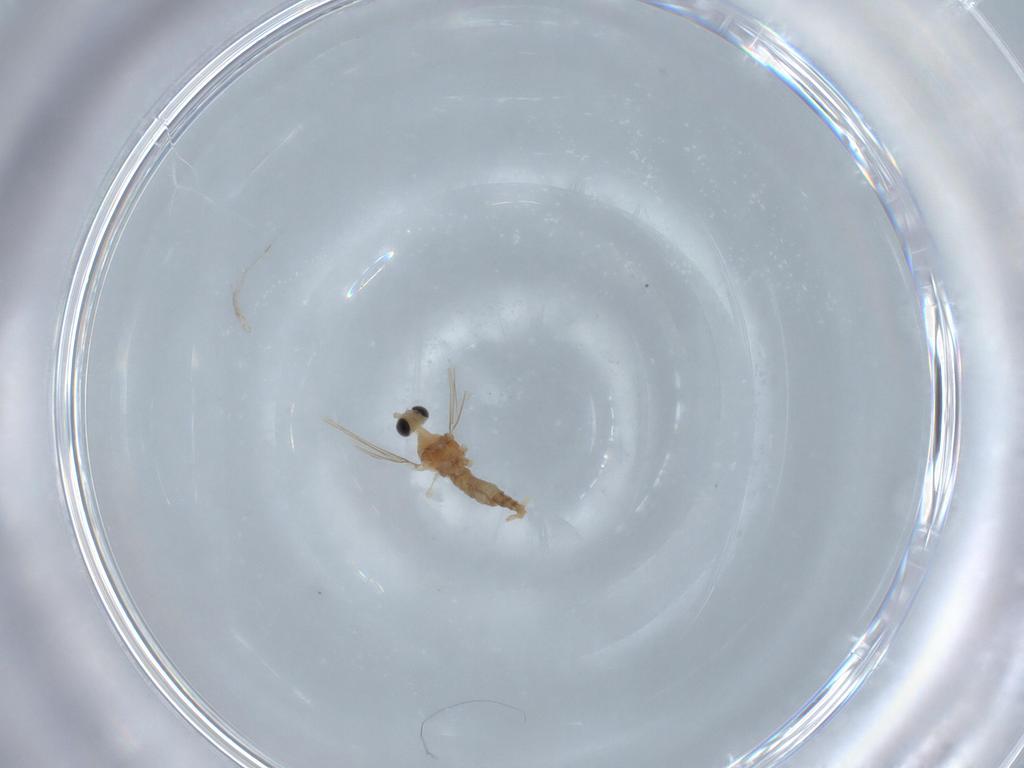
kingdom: Animalia
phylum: Arthropoda
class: Insecta
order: Diptera
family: Cecidomyiidae
